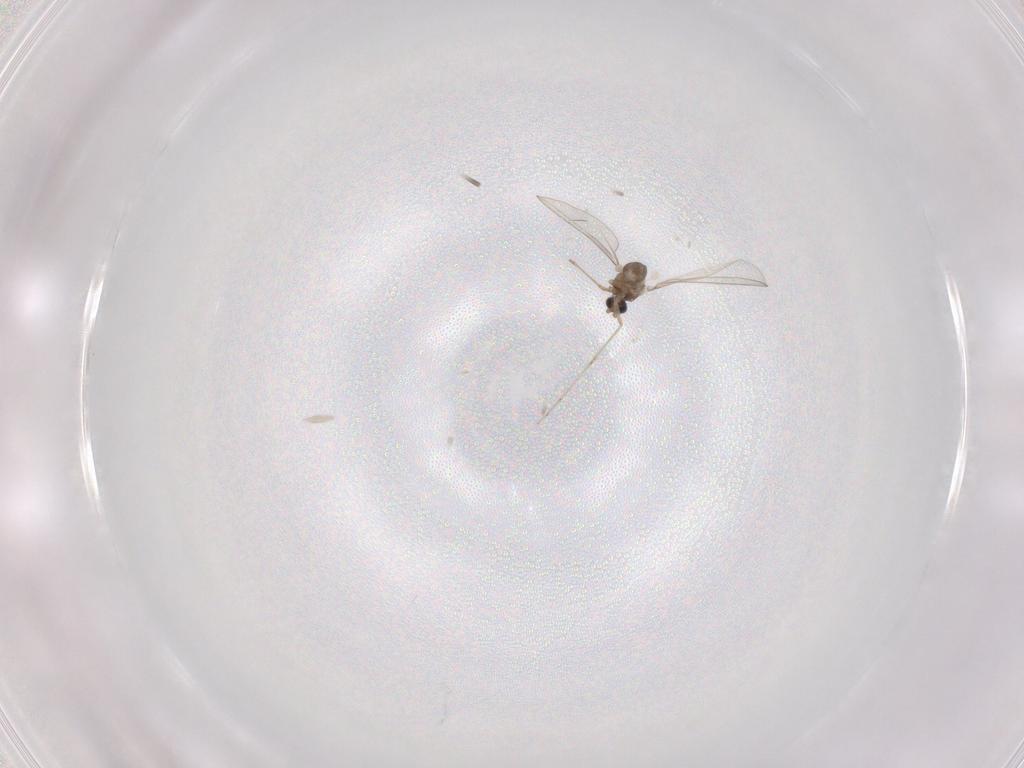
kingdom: Animalia
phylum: Arthropoda
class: Insecta
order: Diptera
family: Cecidomyiidae
